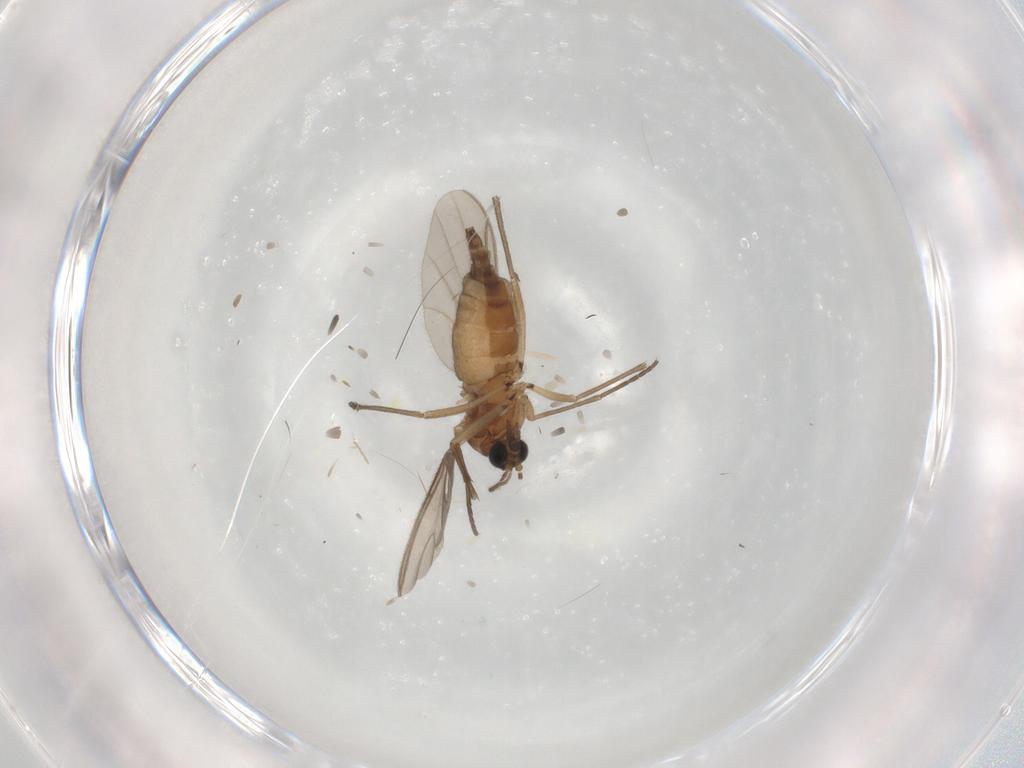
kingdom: Animalia
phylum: Arthropoda
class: Insecta
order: Diptera
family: Sciaridae
